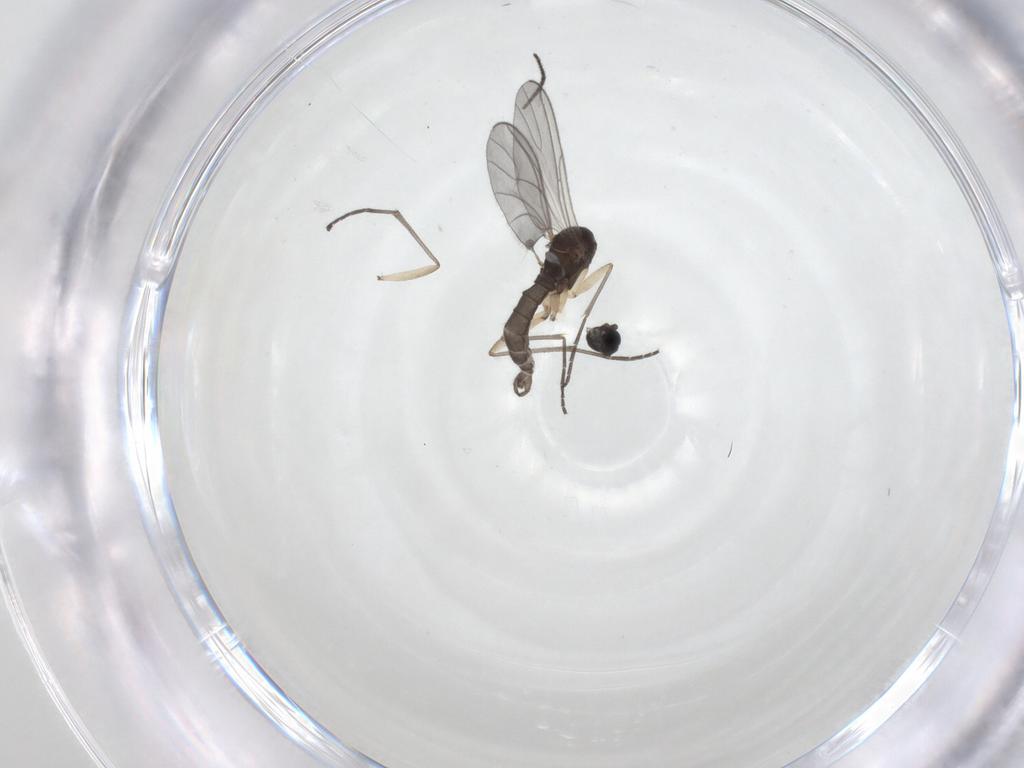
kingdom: Animalia
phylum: Arthropoda
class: Insecta
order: Diptera
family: Sciaridae
